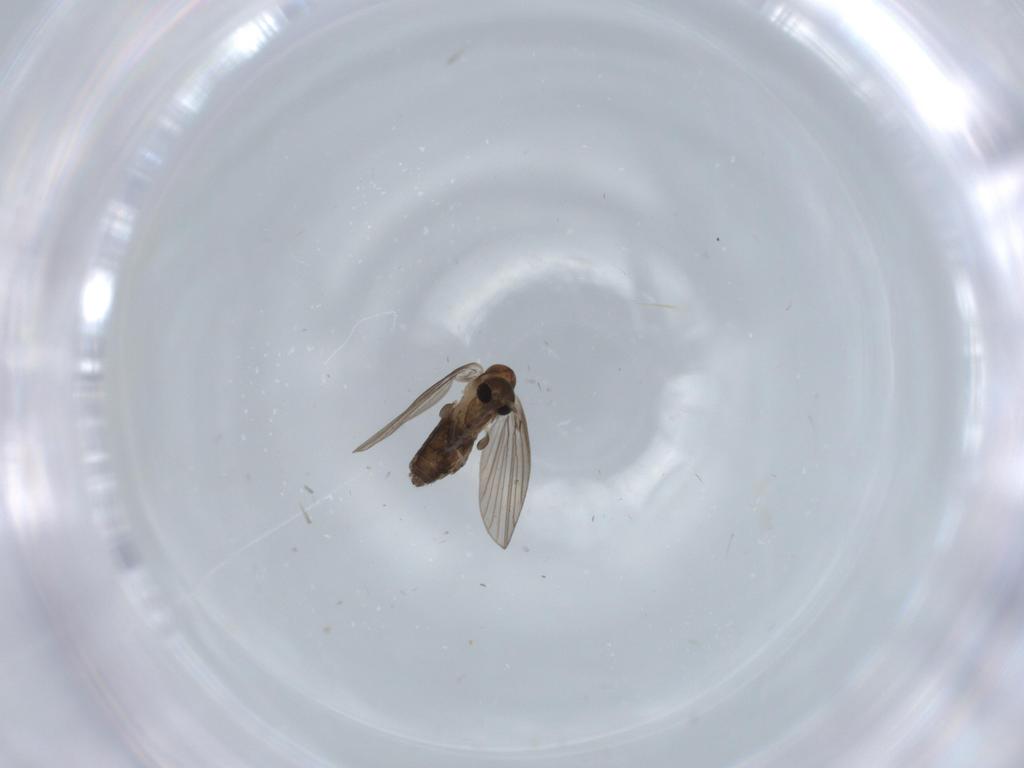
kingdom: Animalia
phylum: Arthropoda
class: Insecta
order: Diptera
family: Psychodidae
